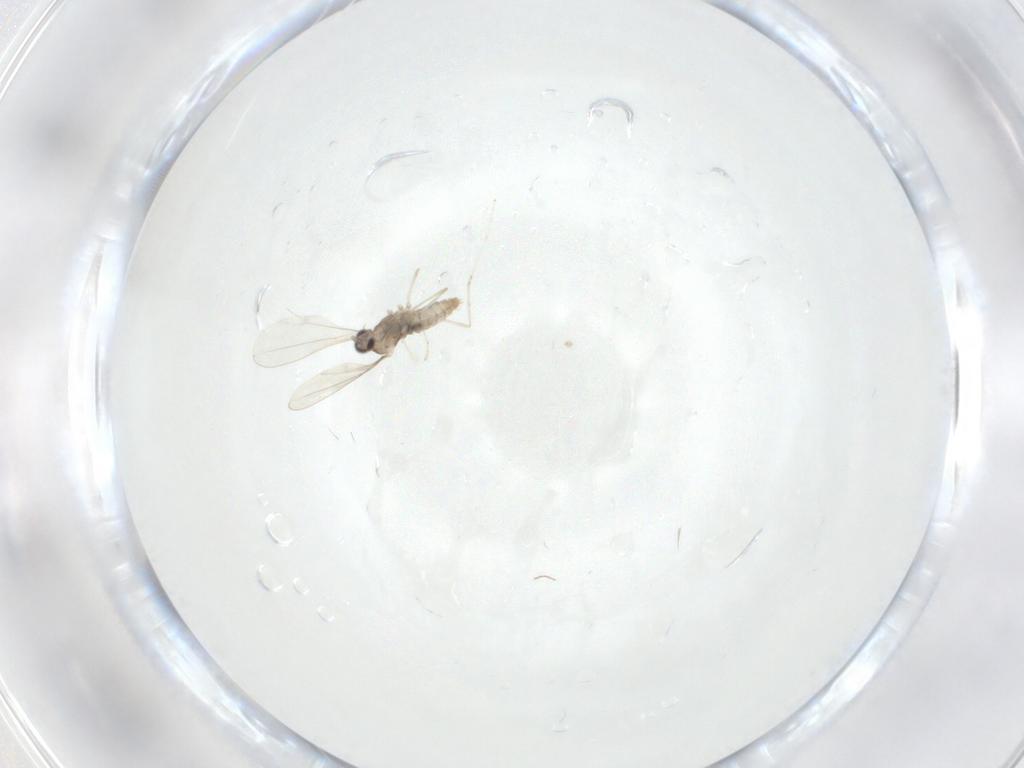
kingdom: Animalia
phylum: Arthropoda
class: Insecta
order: Diptera
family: Cecidomyiidae
